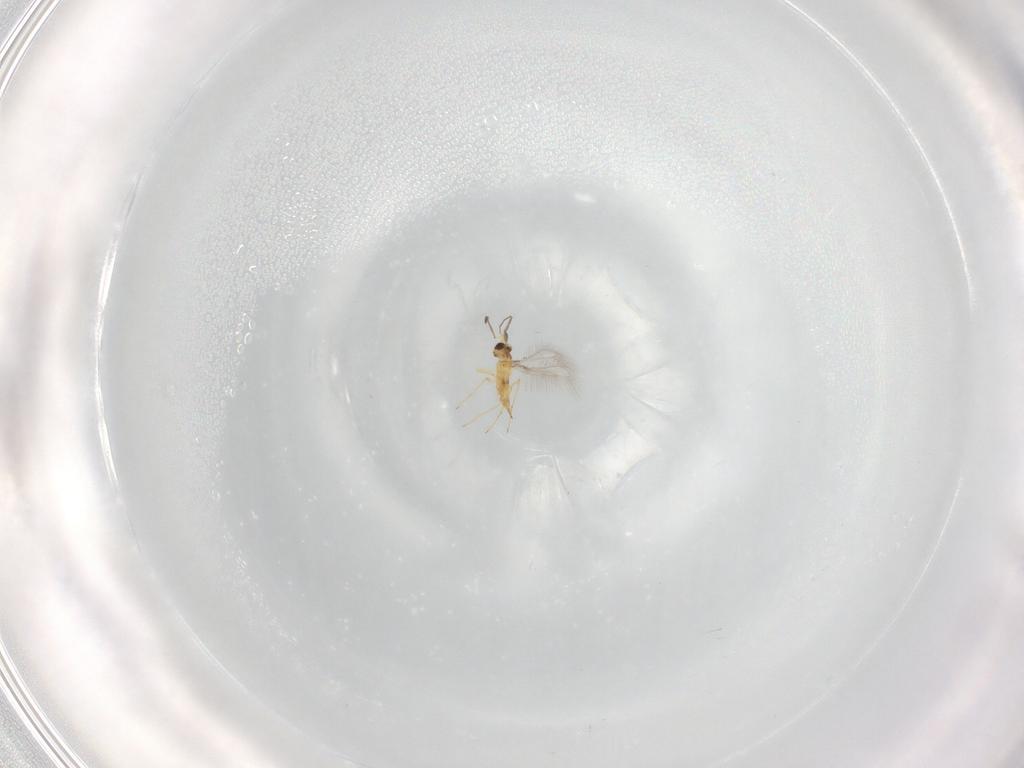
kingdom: Animalia
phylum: Arthropoda
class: Insecta
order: Hymenoptera
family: Mymaridae
